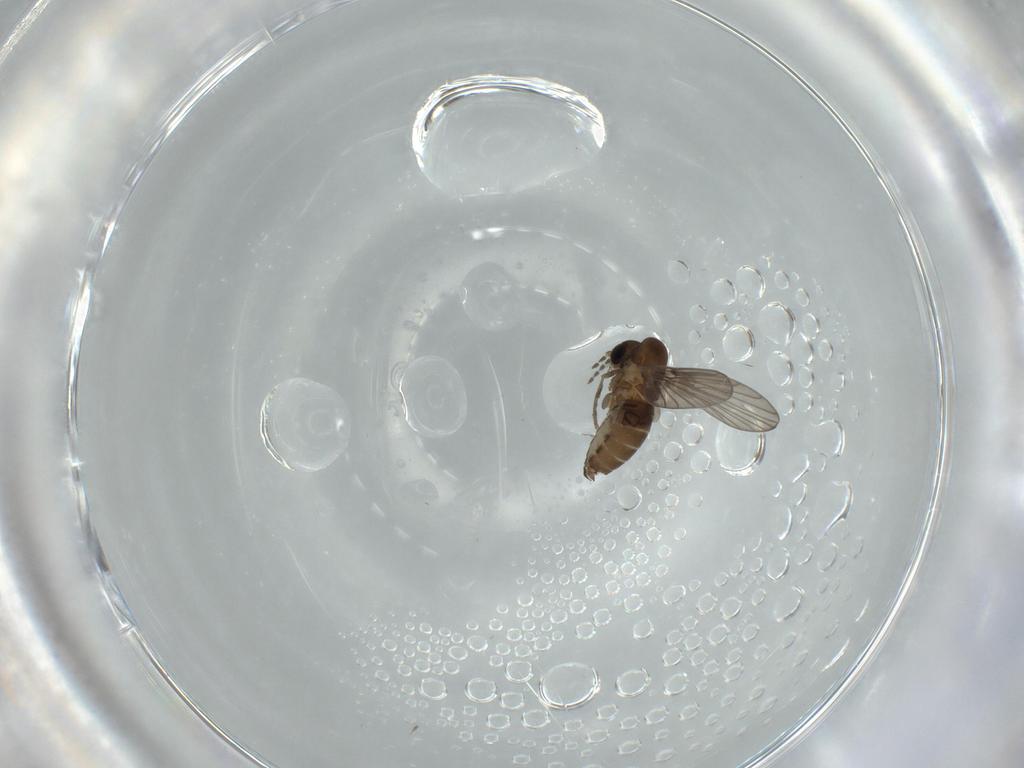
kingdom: Animalia
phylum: Arthropoda
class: Insecta
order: Diptera
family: Psychodidae
